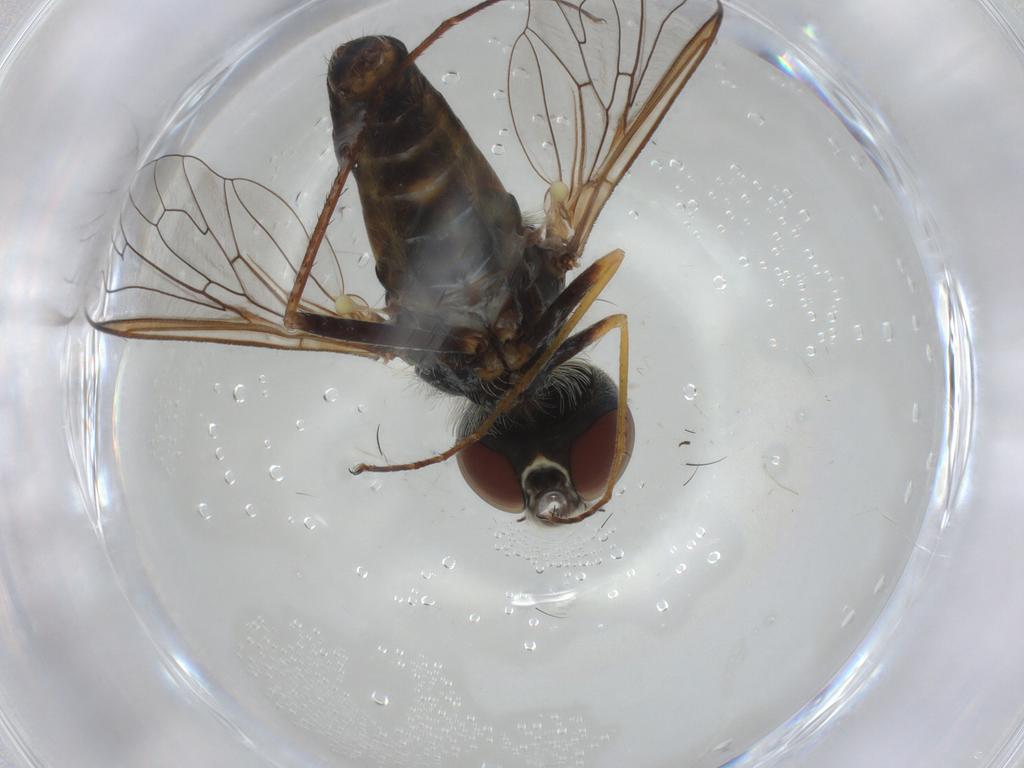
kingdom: Animalia
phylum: Arthropoda
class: Insecta
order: Diptera
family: Bombyliidae
